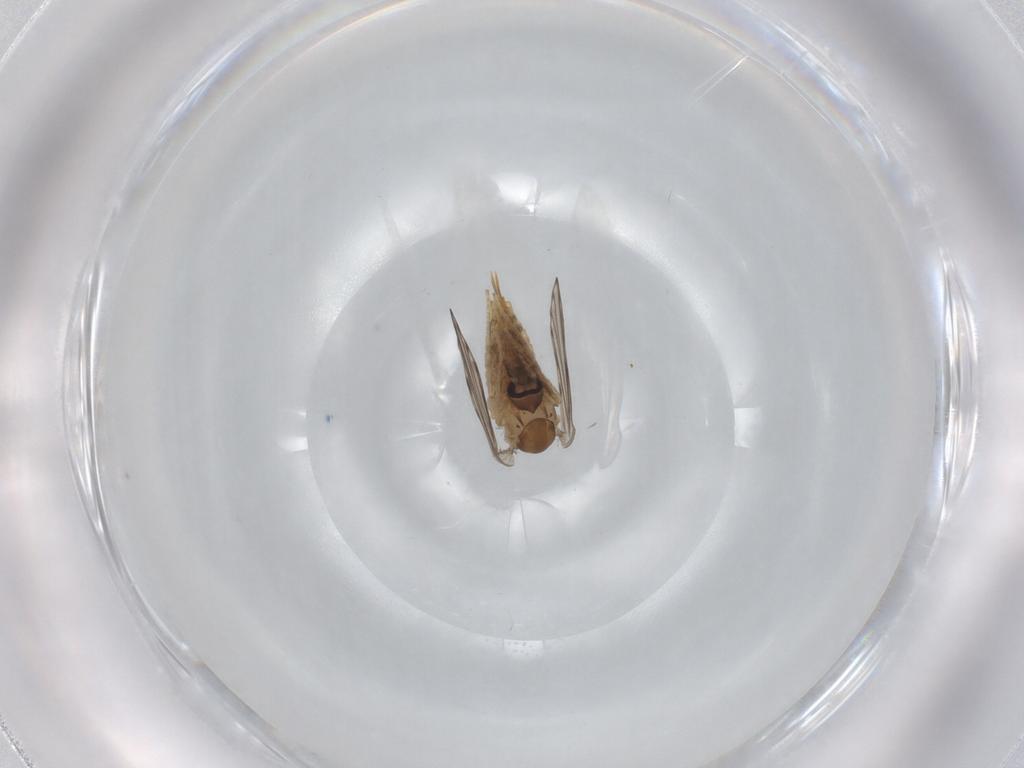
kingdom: Animalia
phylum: Arthropoda
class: Insecta
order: Diptera
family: Psychodidae
